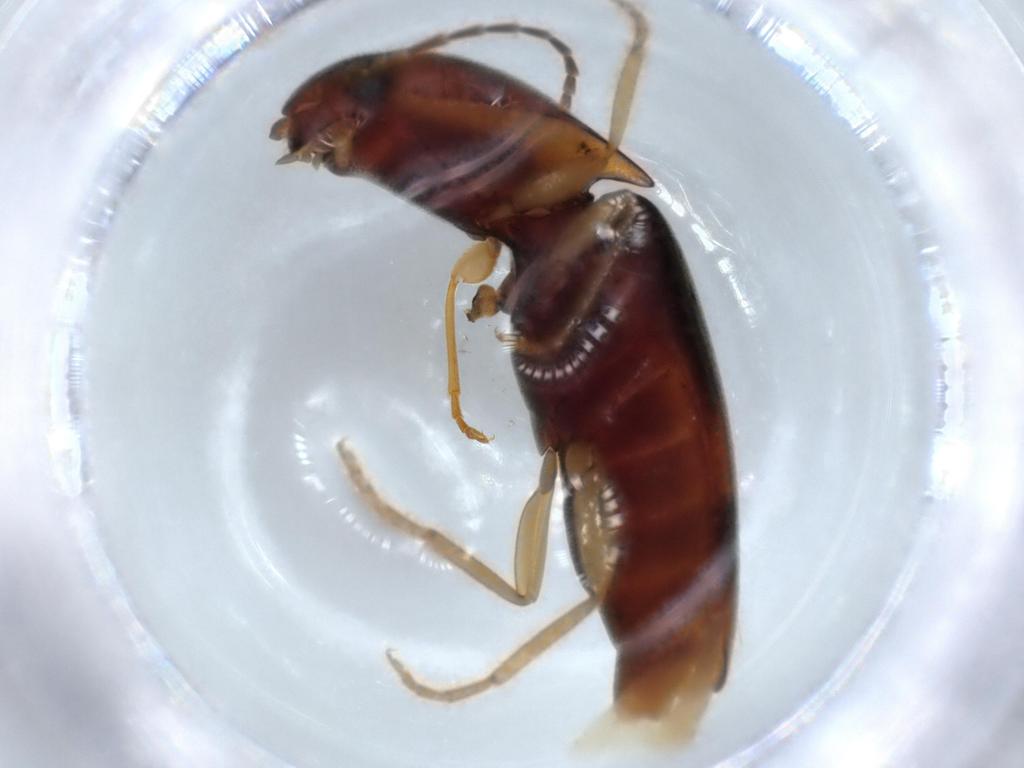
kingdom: Animalia
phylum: Arthropoda
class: Insecta
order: Coleoptera
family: Elateridae
